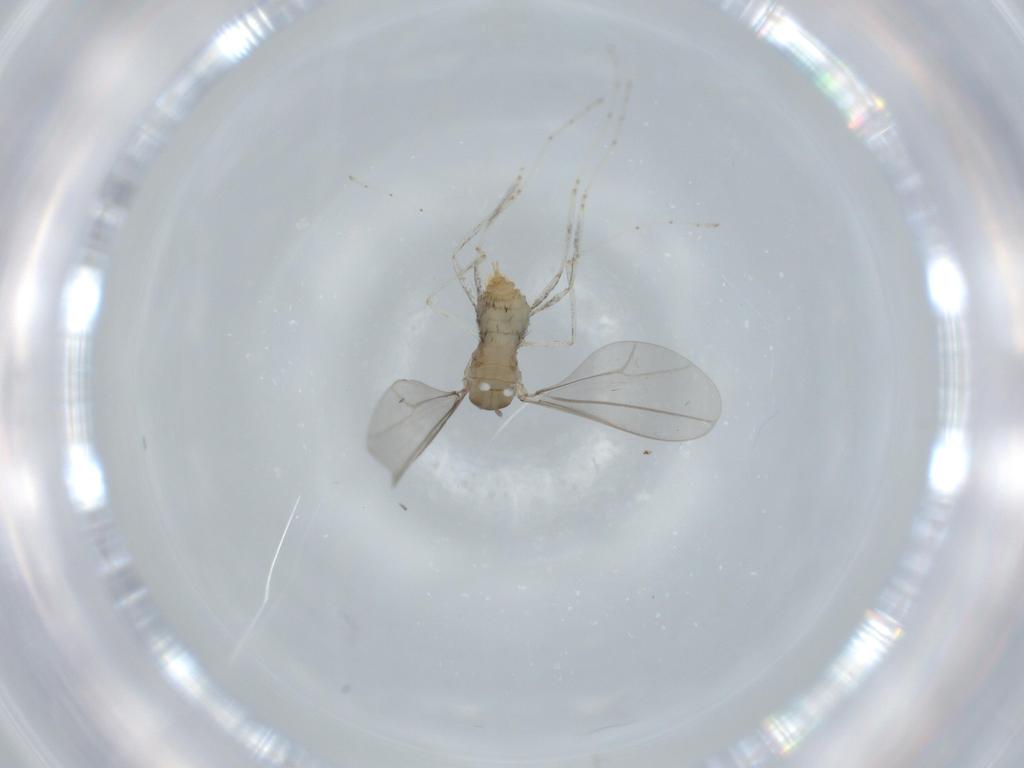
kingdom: Animalia
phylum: Arthropoda
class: Insecta
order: Diptera
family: Cecidomyiidae
